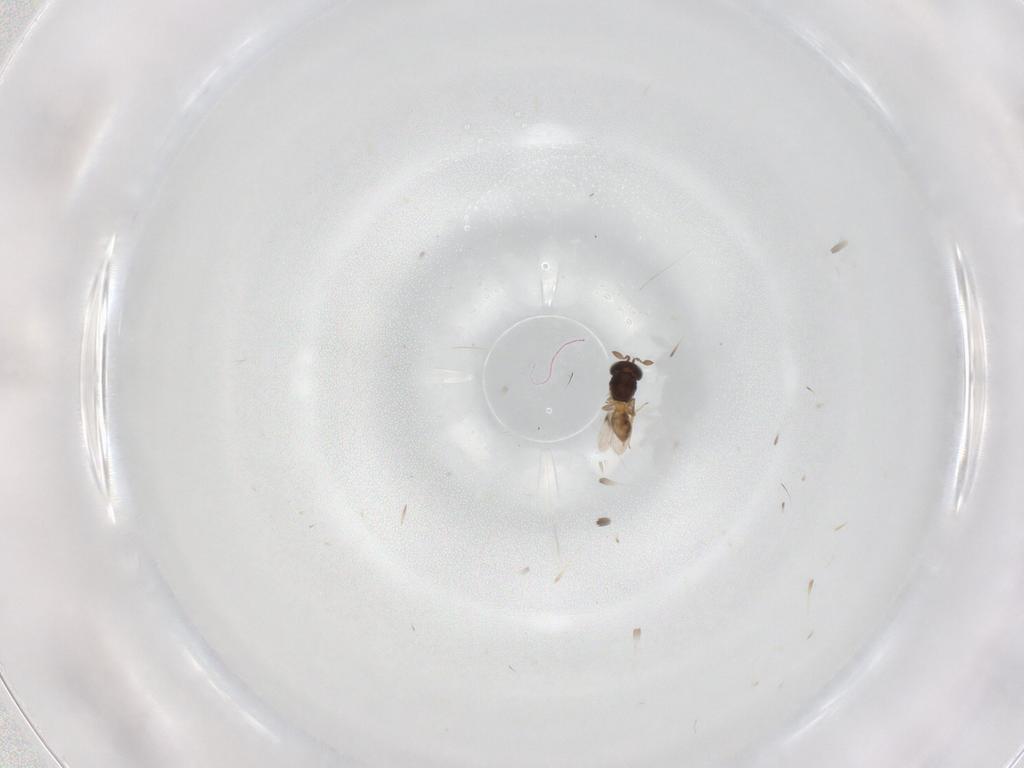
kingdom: Animalia
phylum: Arthropoda
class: Insecta
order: Hymenoptera
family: Scelionidae
